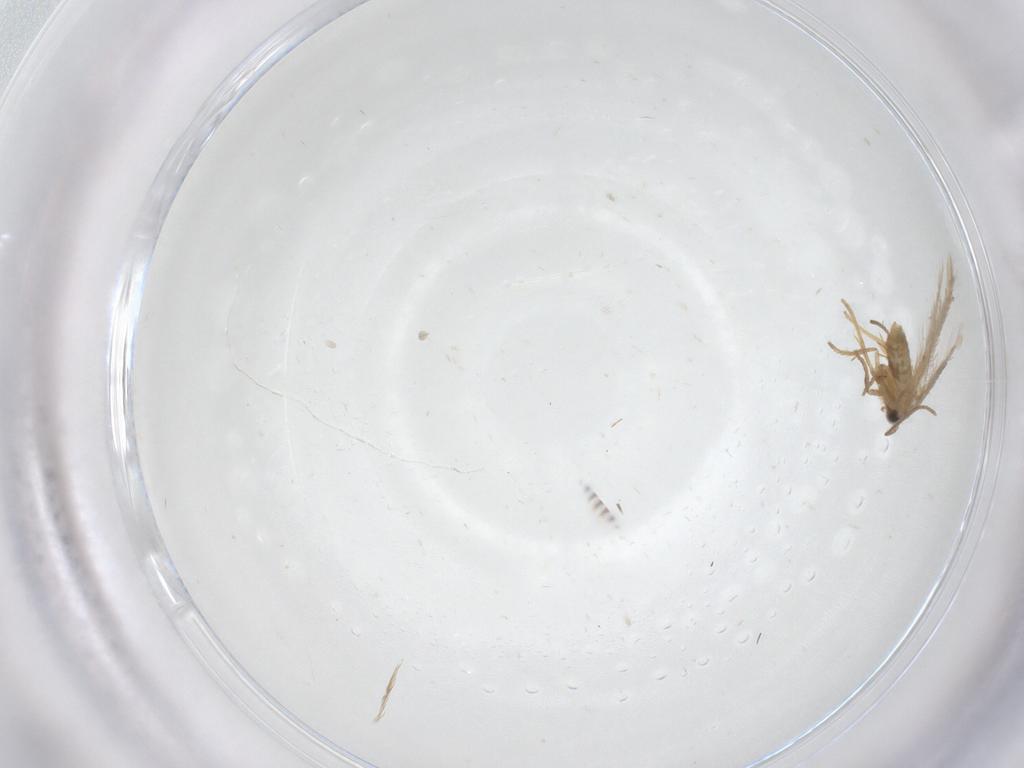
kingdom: Animalia
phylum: Arthropoda
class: Insecta
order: Lepidoptera
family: Nepticulidae
